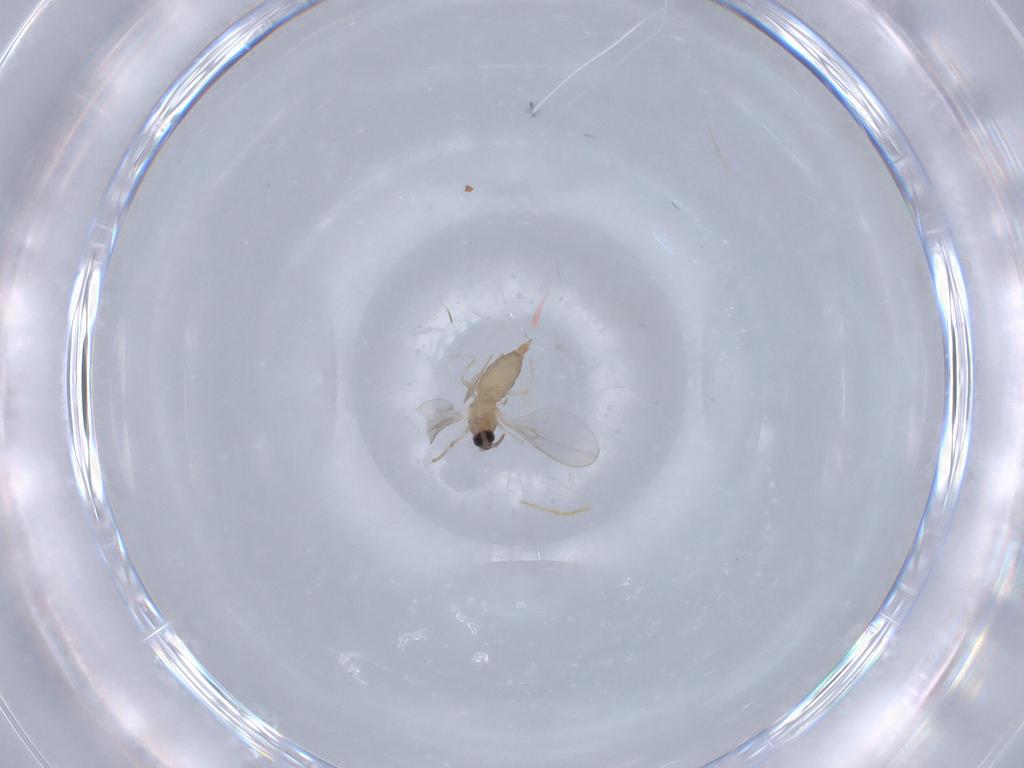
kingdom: Animalia
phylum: Arthropoda
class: Insecta
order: Diptera
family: Cecidomyiidae
